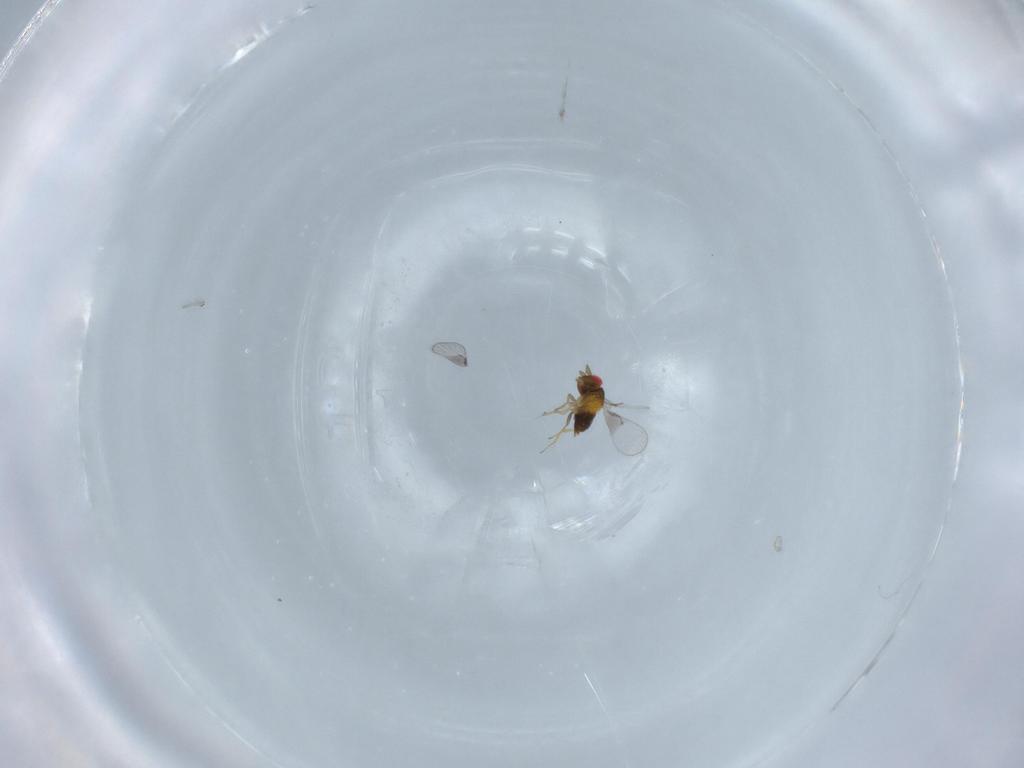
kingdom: Animalia
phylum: Arthropoda
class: Insecta
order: Hymenoptera
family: Trichogrammatidae
